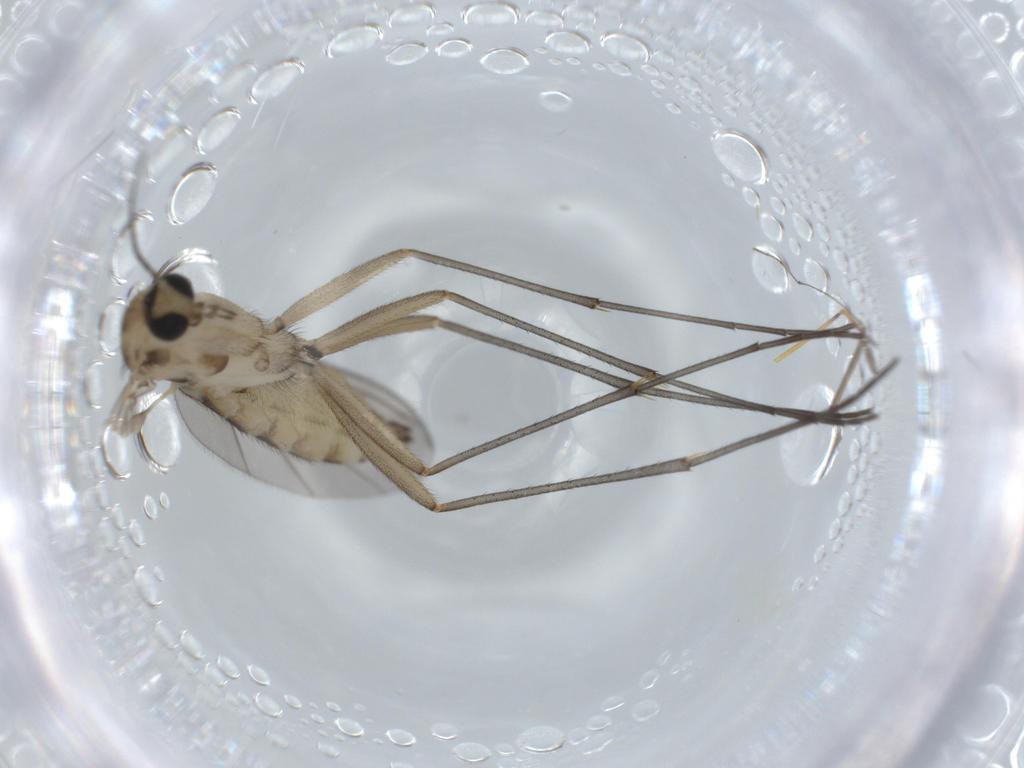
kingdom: Animalia
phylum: Arthropoda
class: Insecta
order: Diptera
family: Sciaridae
